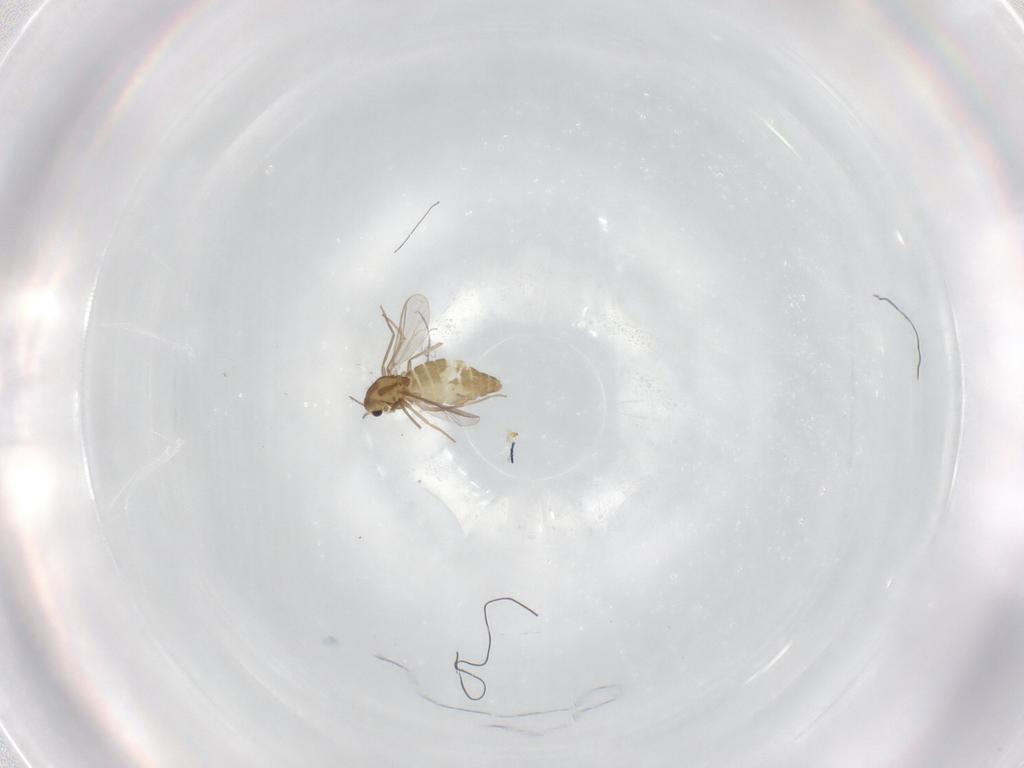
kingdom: Animalia
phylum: Arthropoda
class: Insecta
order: Diptera
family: Chironomidae
